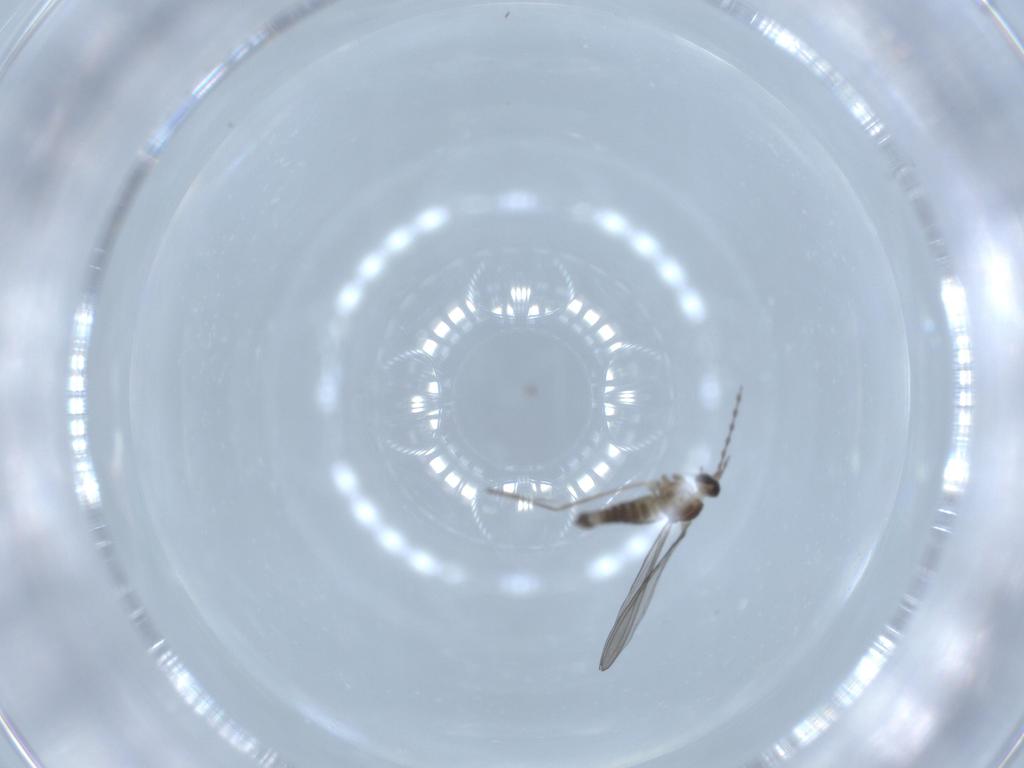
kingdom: Animalia
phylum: Arthropoda
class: Insecta
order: Diptera
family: Cecidomyiidae
